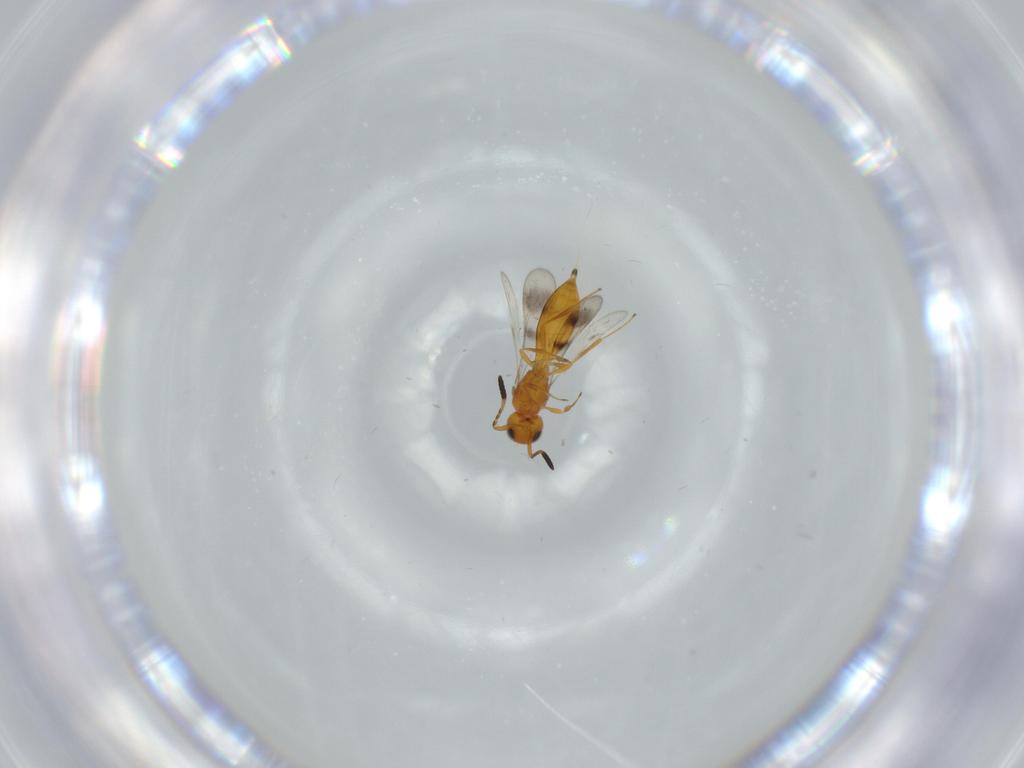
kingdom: Animalia
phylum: Arthropoda
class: Insecta
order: Hymenoptera
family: Scelionidae
